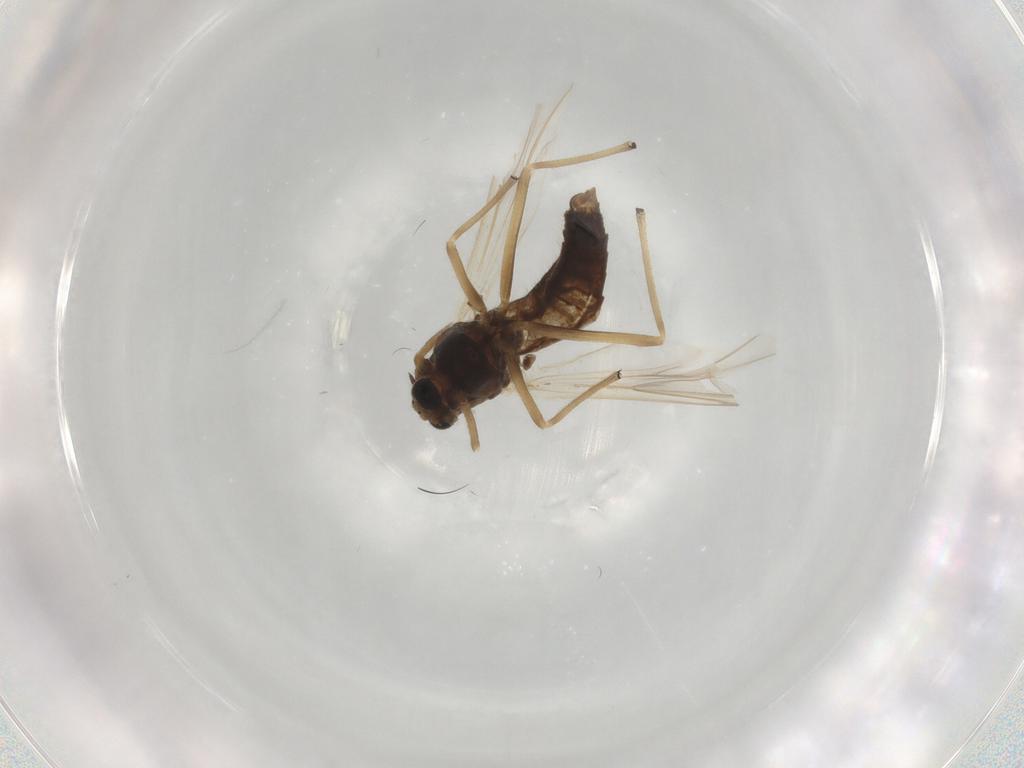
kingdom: Animalia
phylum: Arthropoda
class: Insecta
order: Diptera
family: Chironomidae
